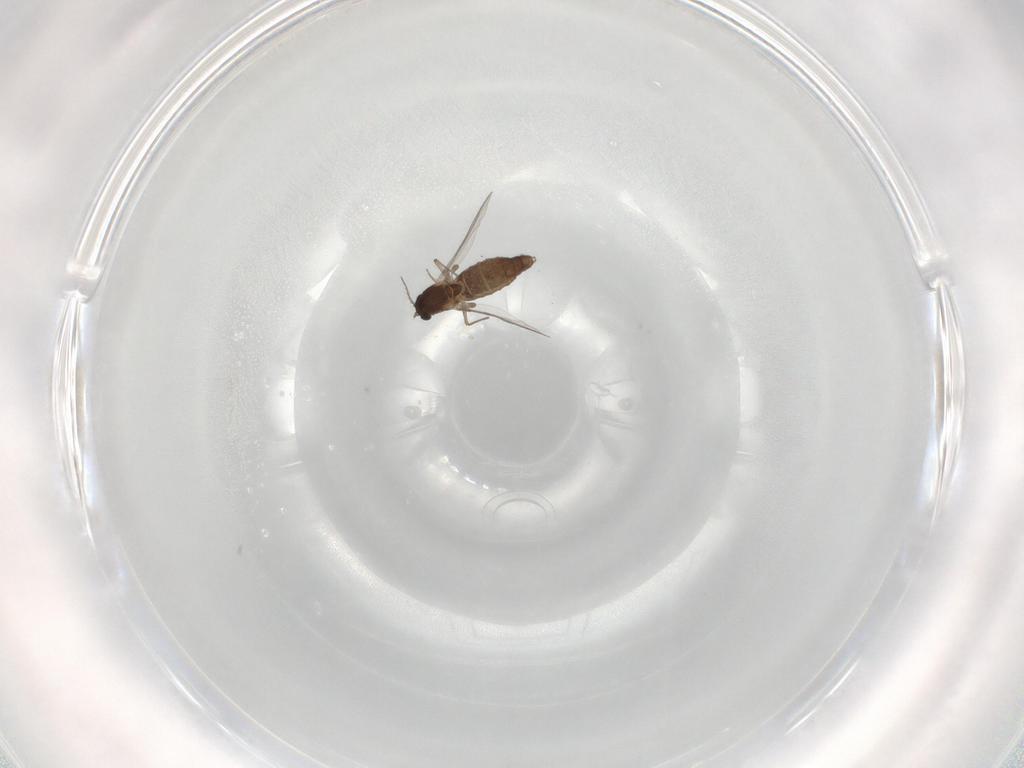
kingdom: Animalia
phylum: Arthropoda
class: Insecta
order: Diptera
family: Chironomidae
